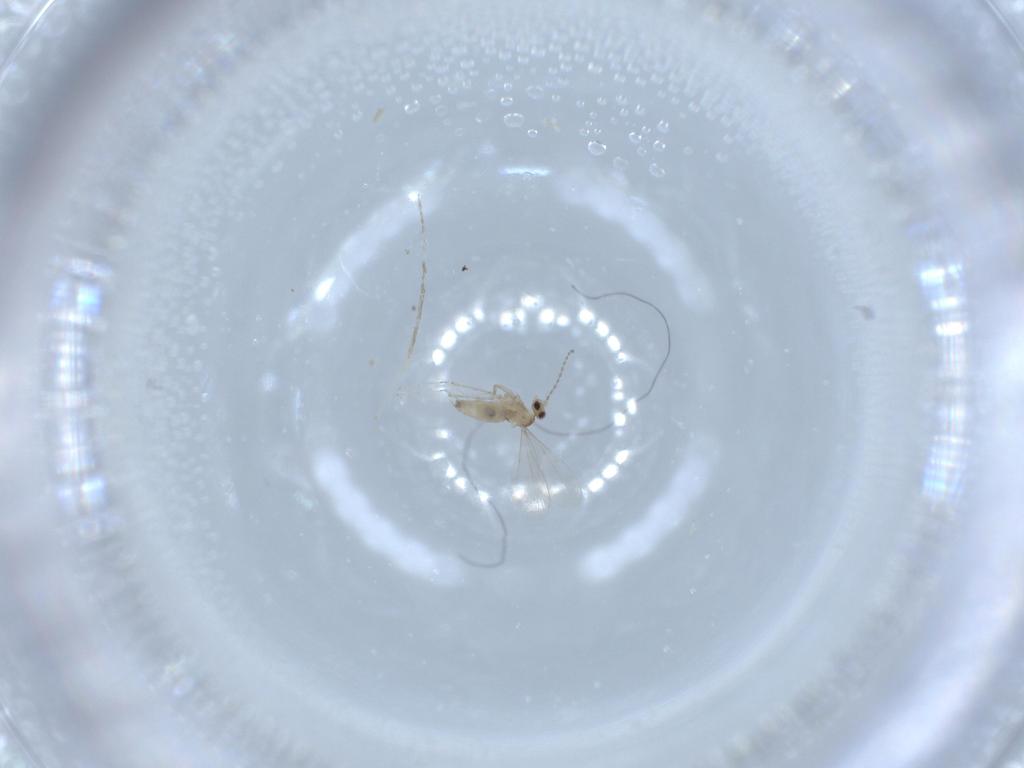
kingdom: Animalia
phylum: Arthropoda
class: Insecta
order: Diptera
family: Cecidomyiidae
